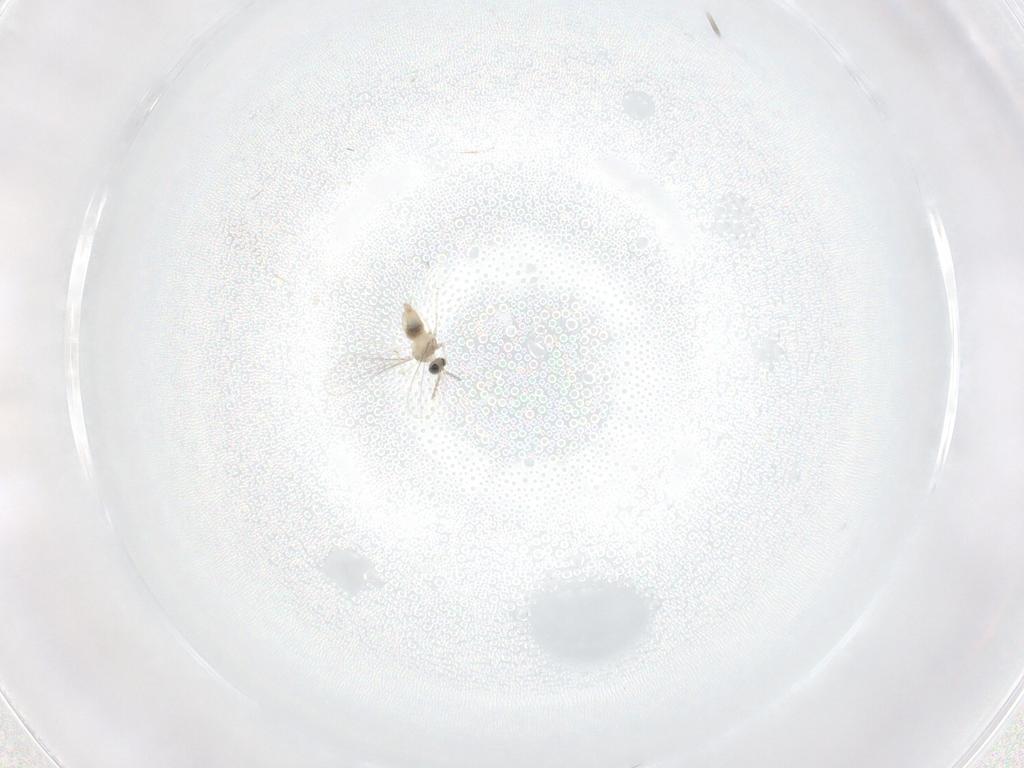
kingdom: Animalia
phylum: Arthropoda
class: Insecta
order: Diptera
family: Cecidomyiidae
